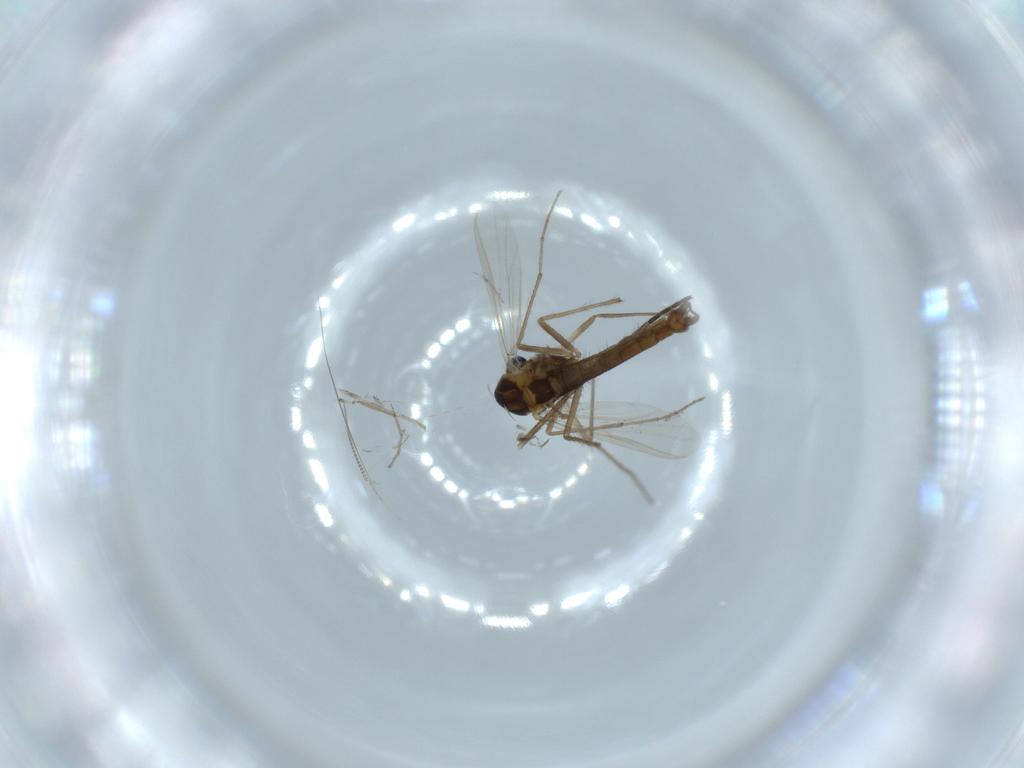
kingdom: Animalia
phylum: Arthropoda
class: Insecta
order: Diptera
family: Chironomidae
